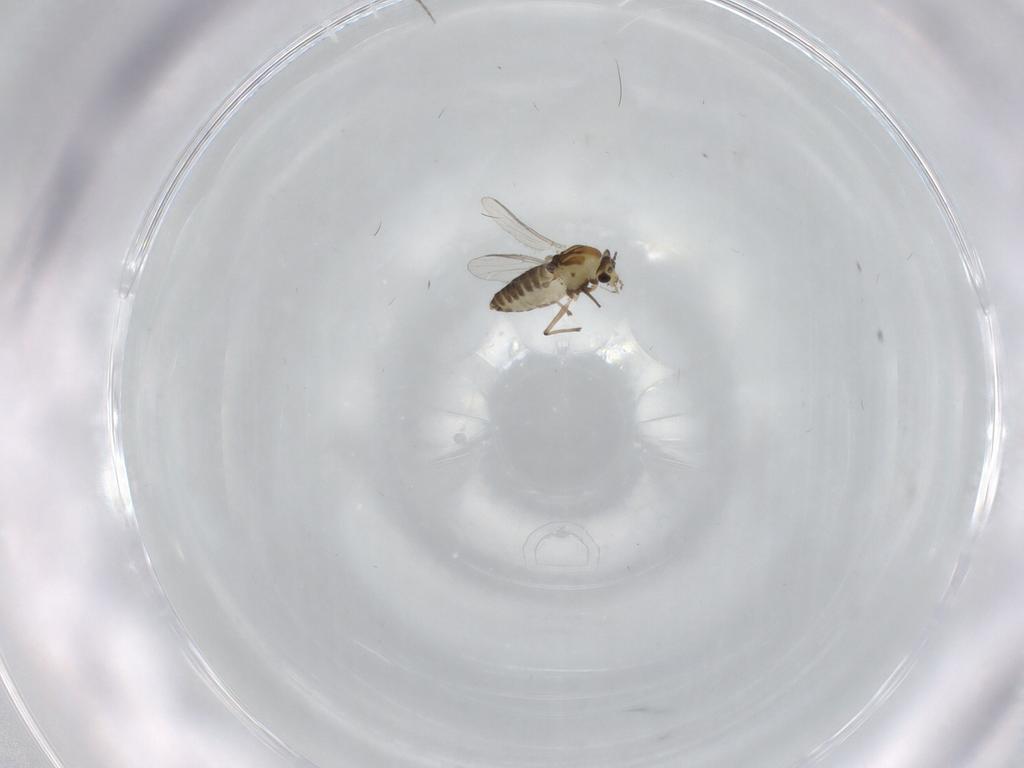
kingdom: Animalia
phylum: Arthropoda
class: Insecta
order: Diptera
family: Chironomidae
